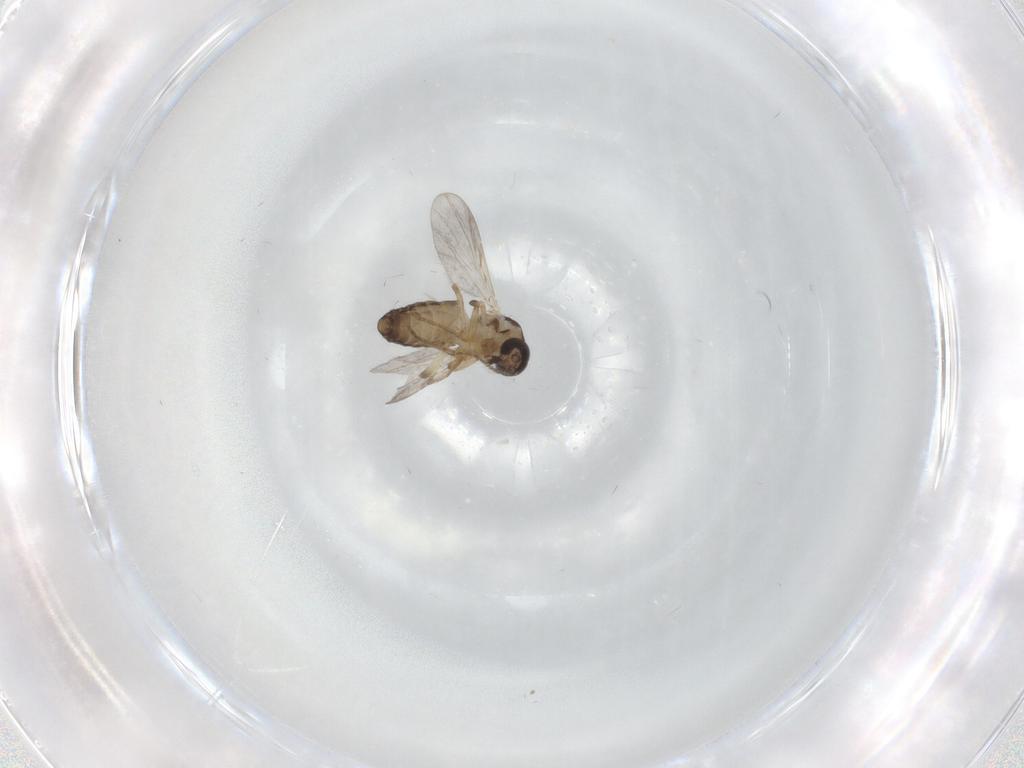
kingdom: Animalia
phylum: Arthropoda
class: Insecta
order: Diptera
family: Ceratopogonidae
